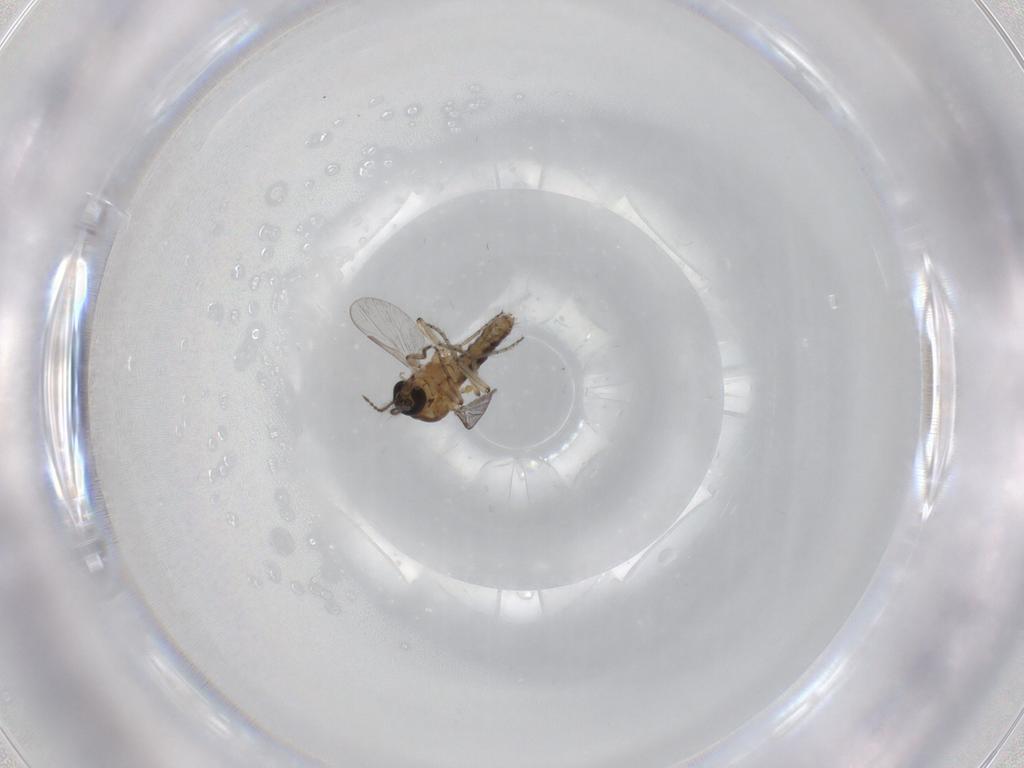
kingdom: Animalia
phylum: Arthropoda
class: Insecta
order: Diptera
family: Ceratopogonidae
